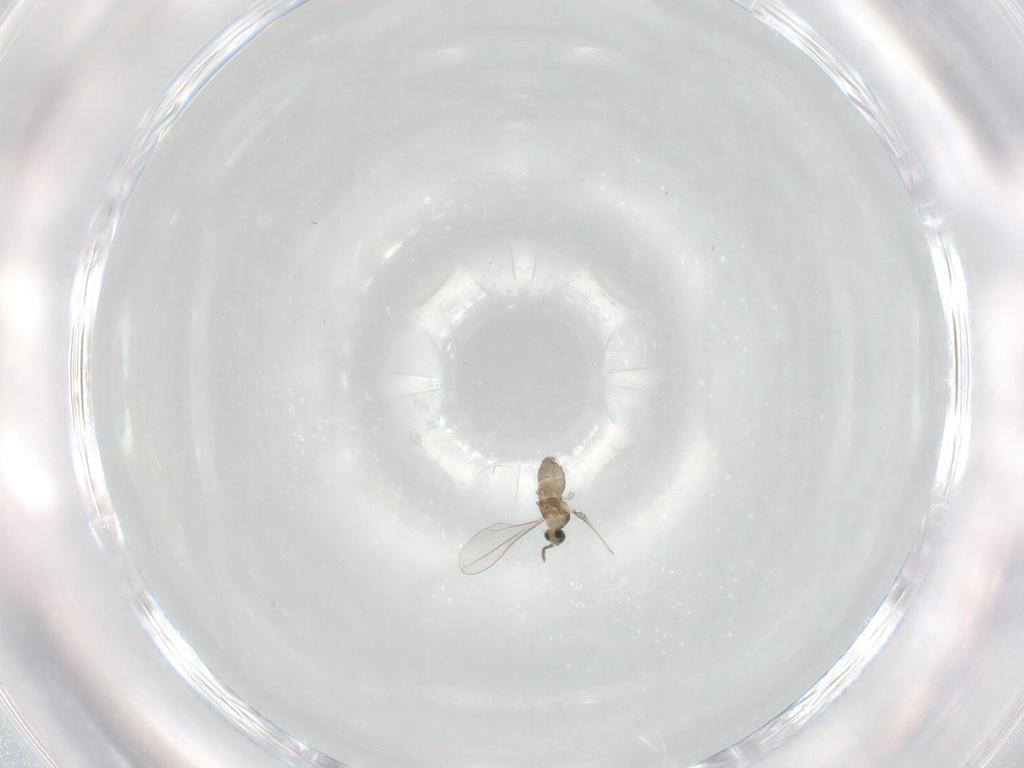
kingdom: Animalia
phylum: Arthropoda
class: Insecta
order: Diptera
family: Cecidomyiidae
